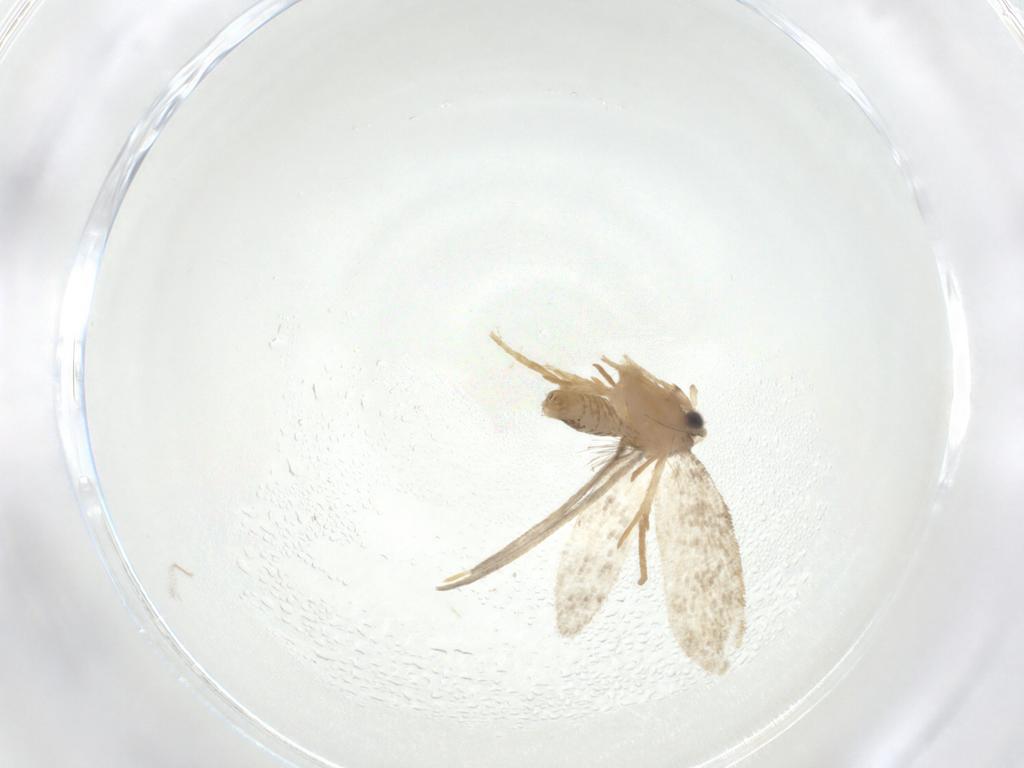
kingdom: Animalia
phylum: Arthropoda
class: Insecta
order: Lepidoptera
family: Psychidae
